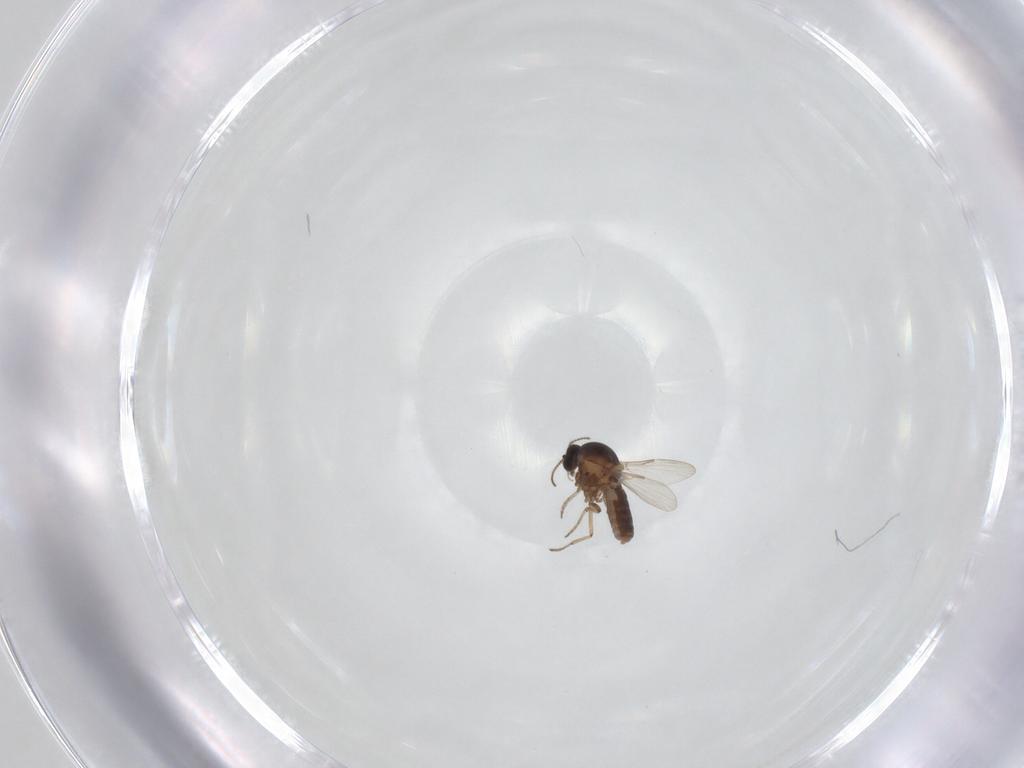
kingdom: Animalia
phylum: Arthropoda
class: Insecta
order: Diptera
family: Ceratopogonidae
